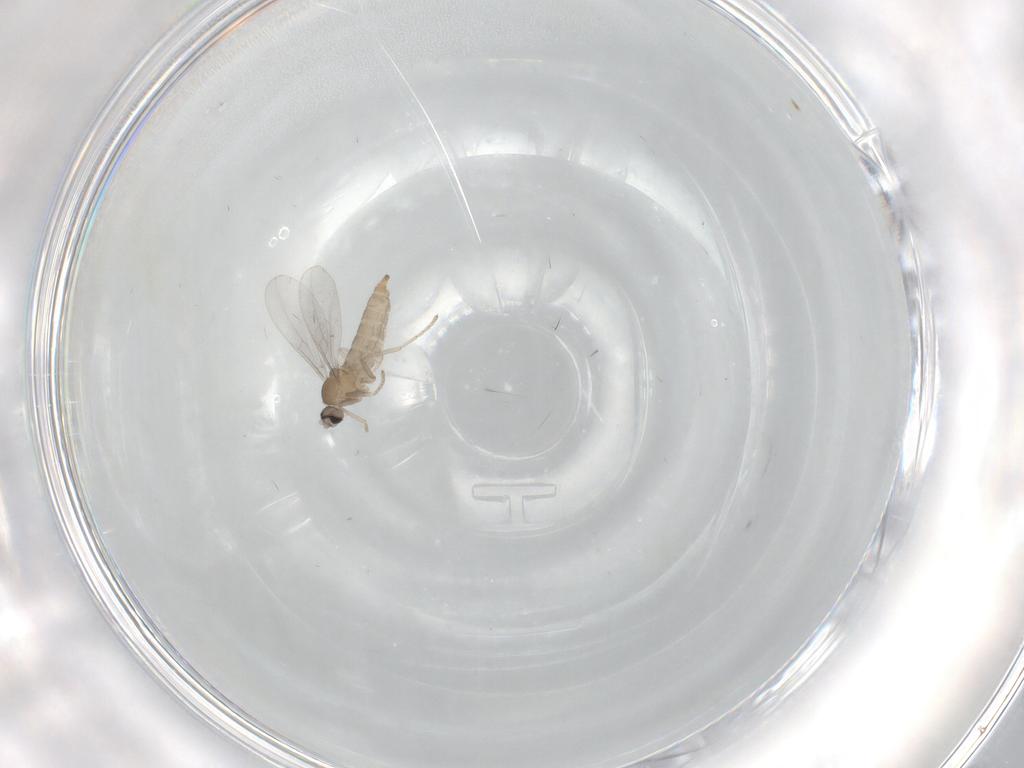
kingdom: Animalia
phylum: Arthropoda
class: Insecta
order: Diptera
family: Cecidomyiidae
